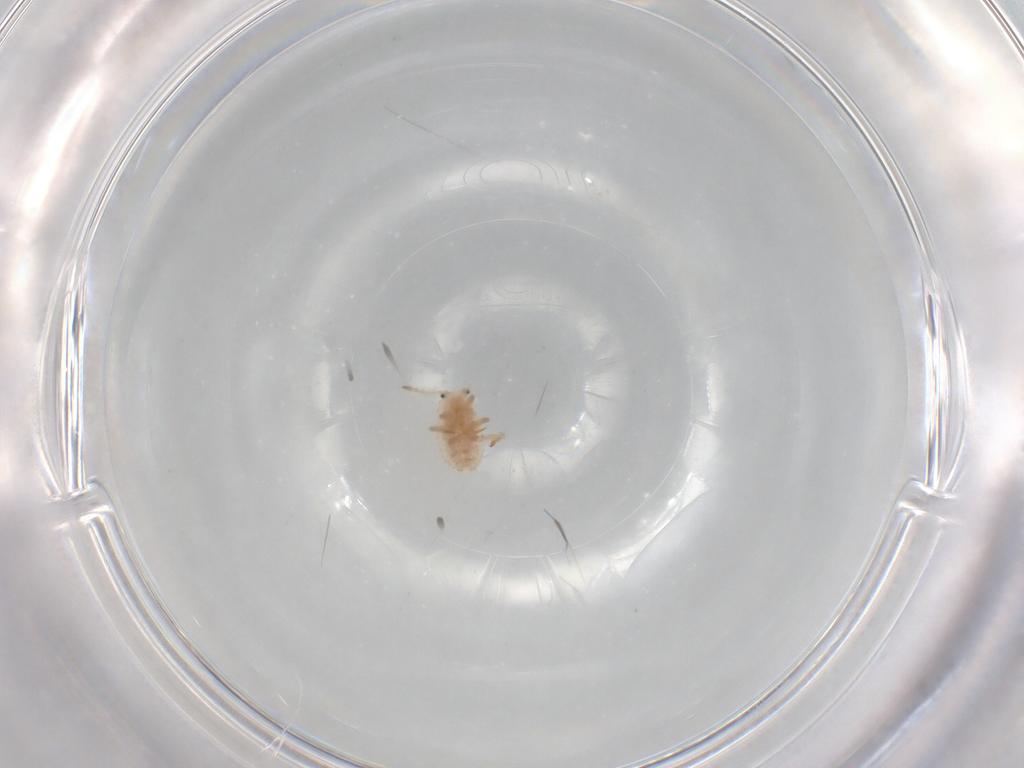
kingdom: Animalia
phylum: Arthropoda
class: Insecta
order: Hemiptera
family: Coccoidea_incertae_sedis
